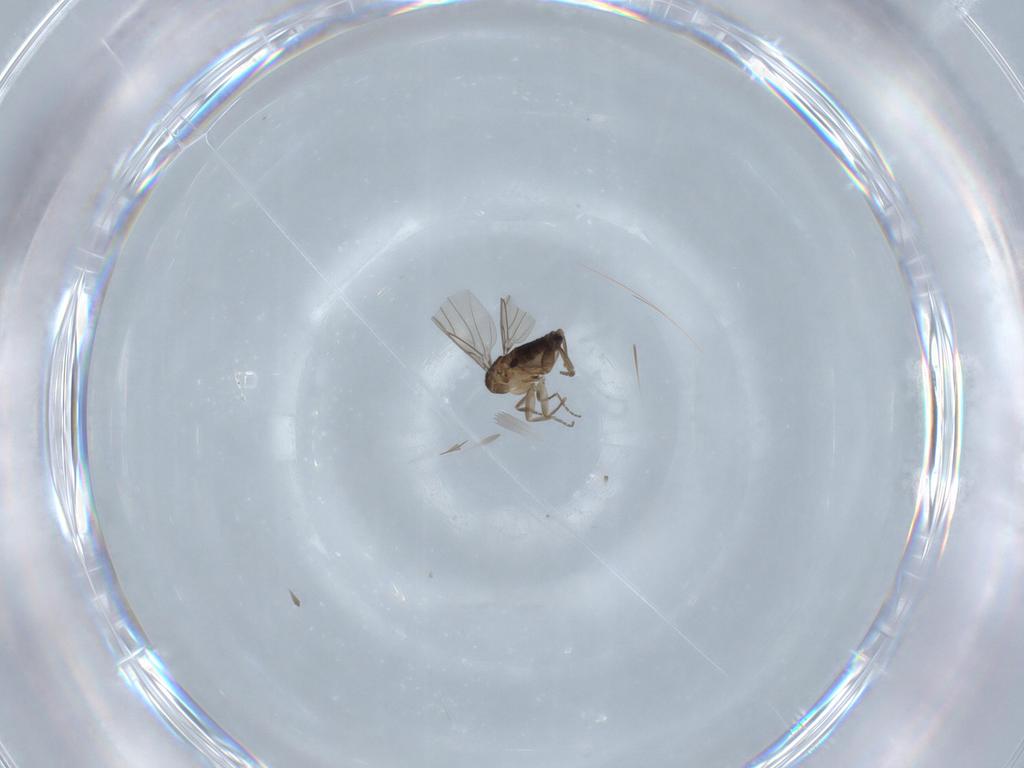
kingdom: Animalia
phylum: Arthropoda
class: Insecta
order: Diptera
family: Chironomidae
